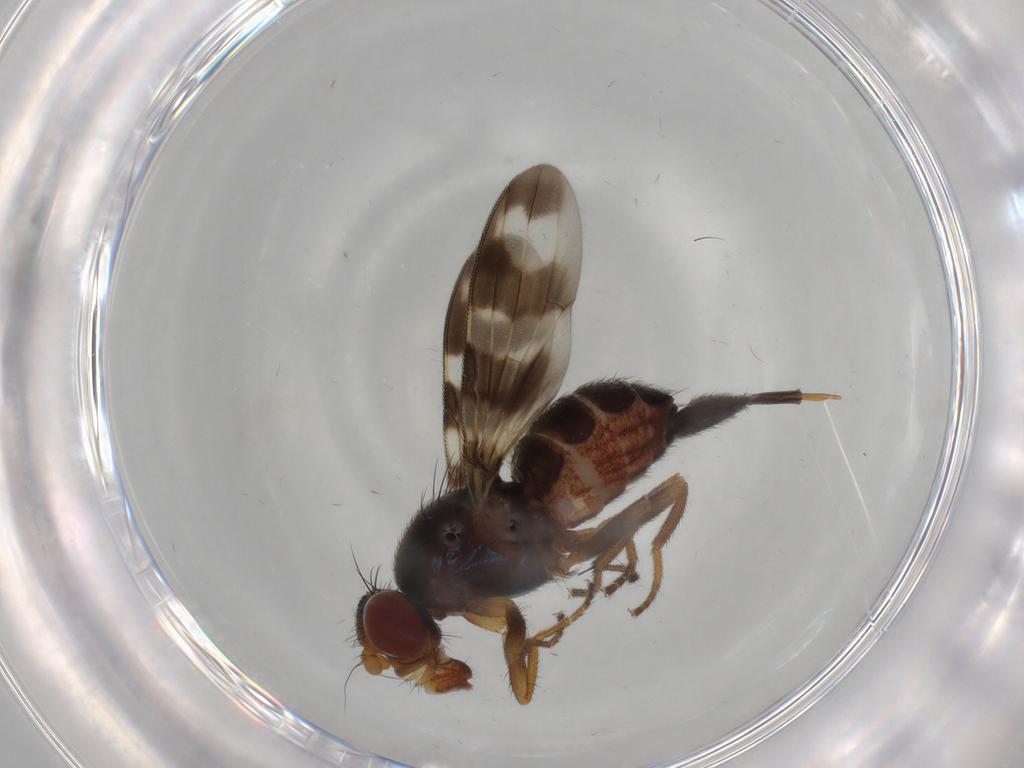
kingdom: Animalia
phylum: Arthropoda
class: Insecta
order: Diptera
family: Ulidiidae
